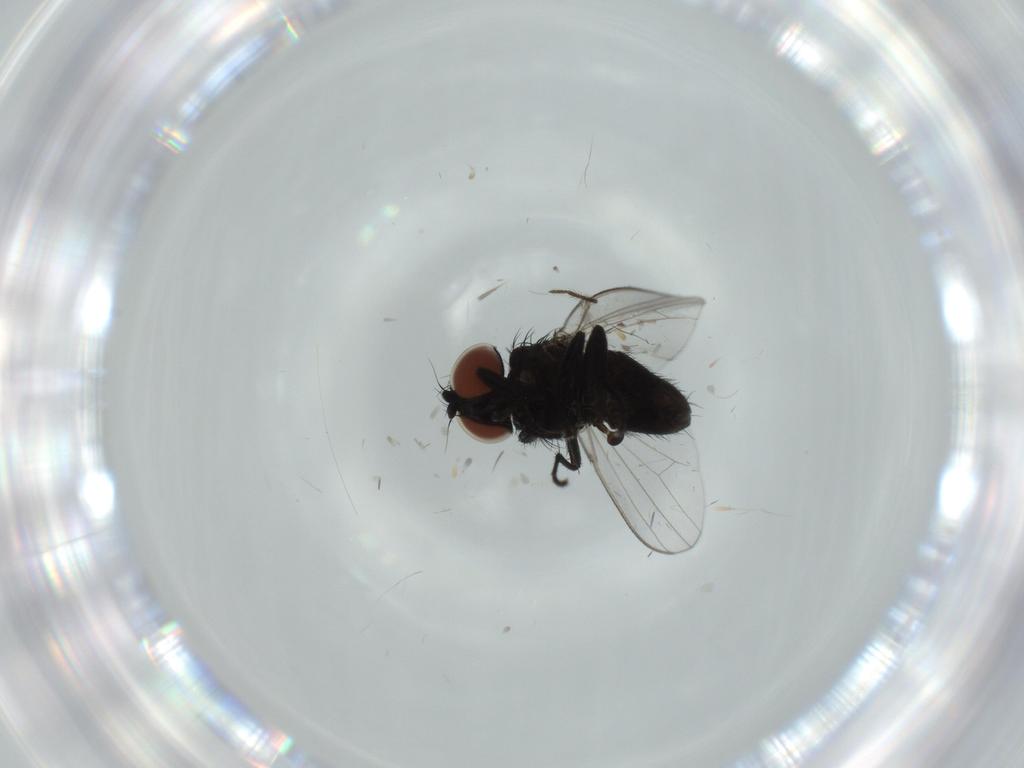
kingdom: Animalia
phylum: Arthropoda
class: Insecta
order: Diptera
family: Milichiidae
